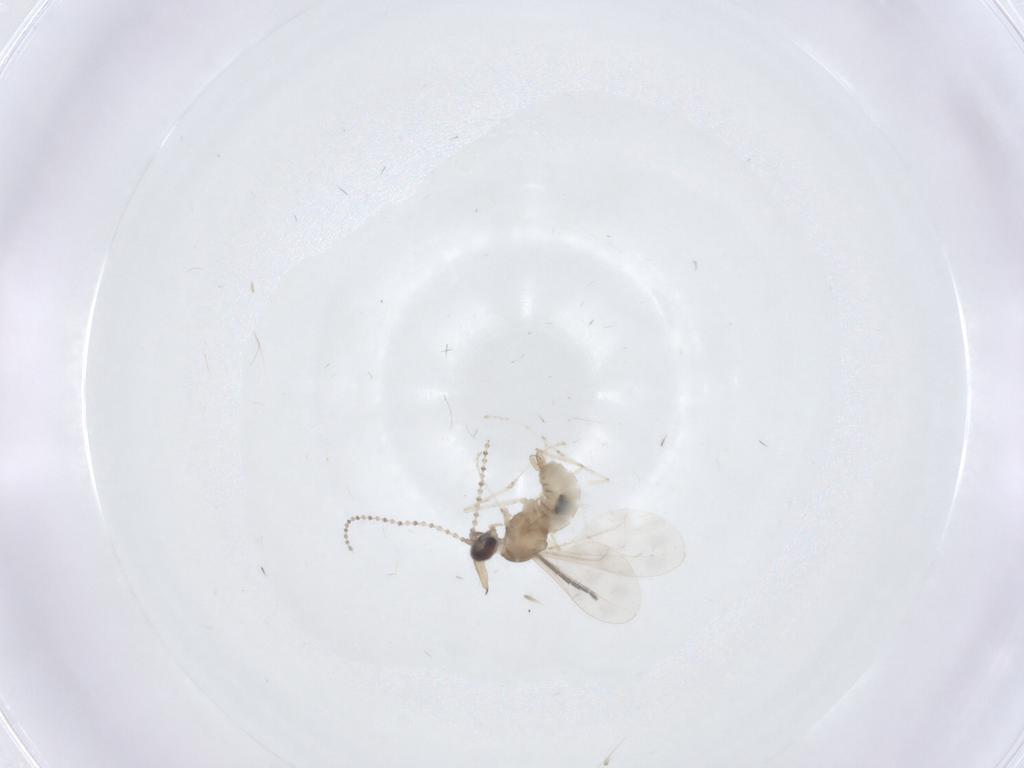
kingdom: Animalia
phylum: Arthropoda
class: Insecta
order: Diptera
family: Cecidomyiidae
